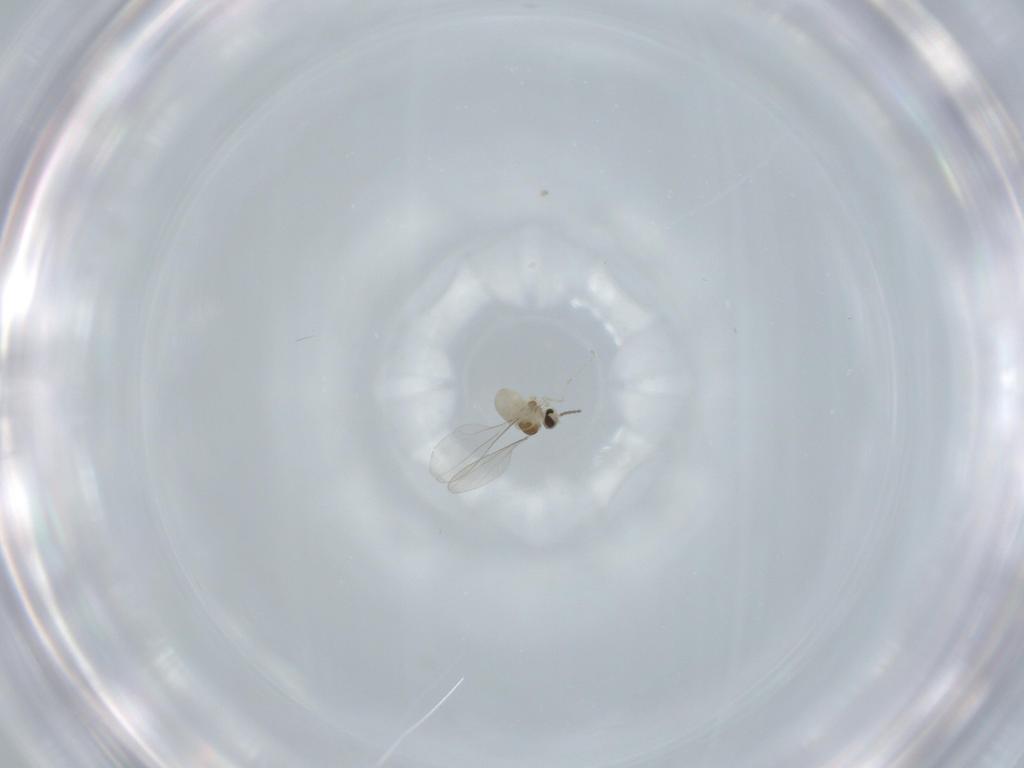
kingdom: Animalia
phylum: Arthropoda
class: Insecta
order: Diptera
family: Cecidomyiidae
